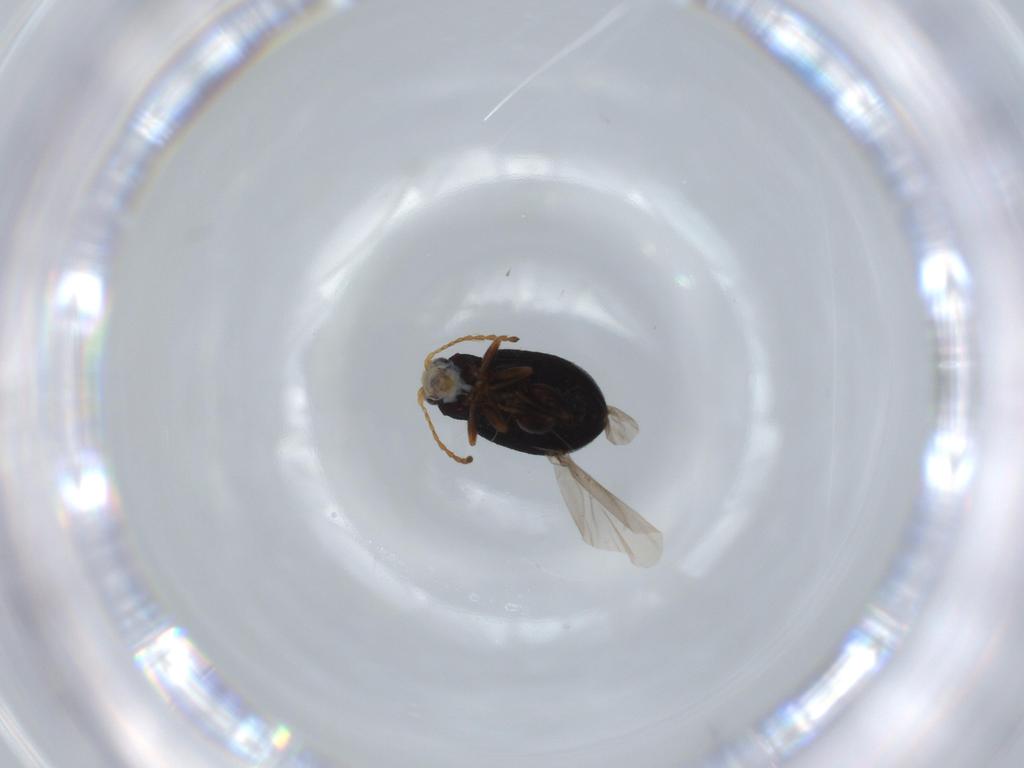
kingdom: Animalia
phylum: Arthropoda
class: Insecta
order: Coleoptera
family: Chrysomelidae
